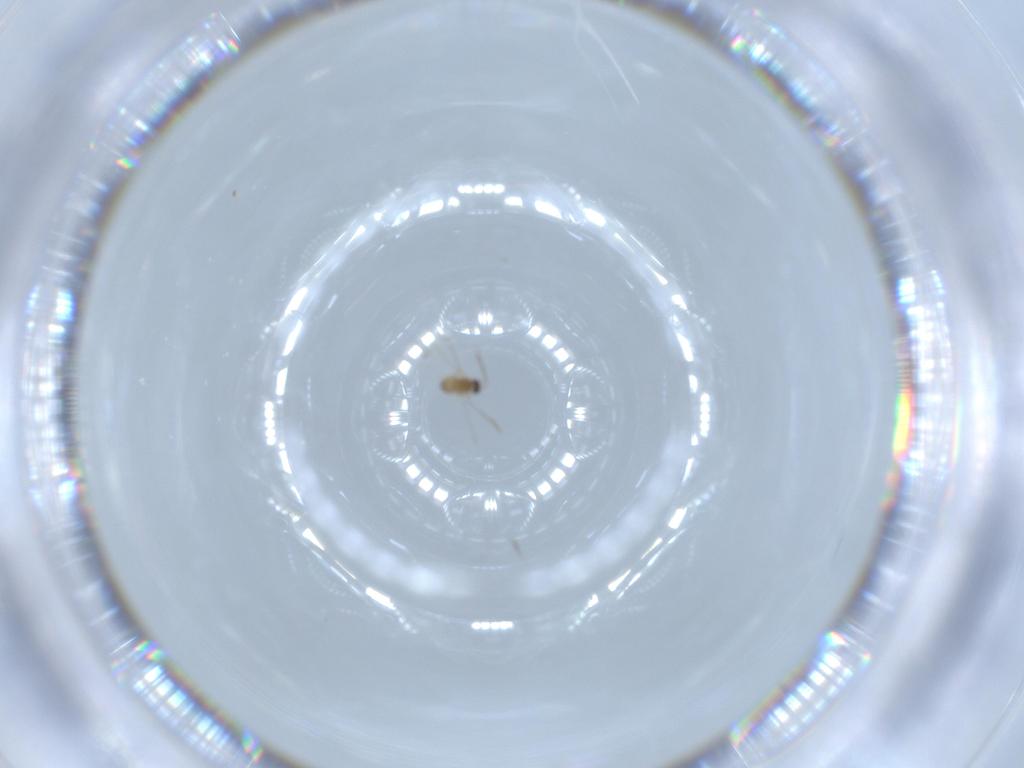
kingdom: Animalia
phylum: Arthropoda
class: Insecta
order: Hymenoptera
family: Mymaridae
